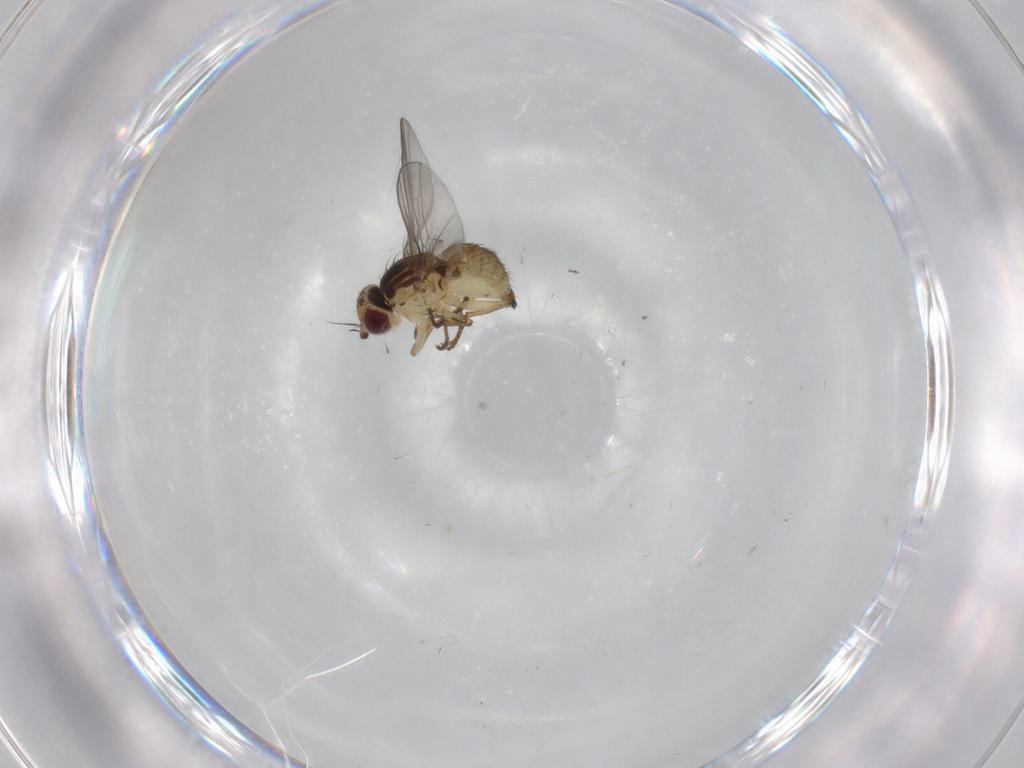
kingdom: Animalia
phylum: Arthropoda
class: Insecta
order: Diptera
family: Agromyzidae
